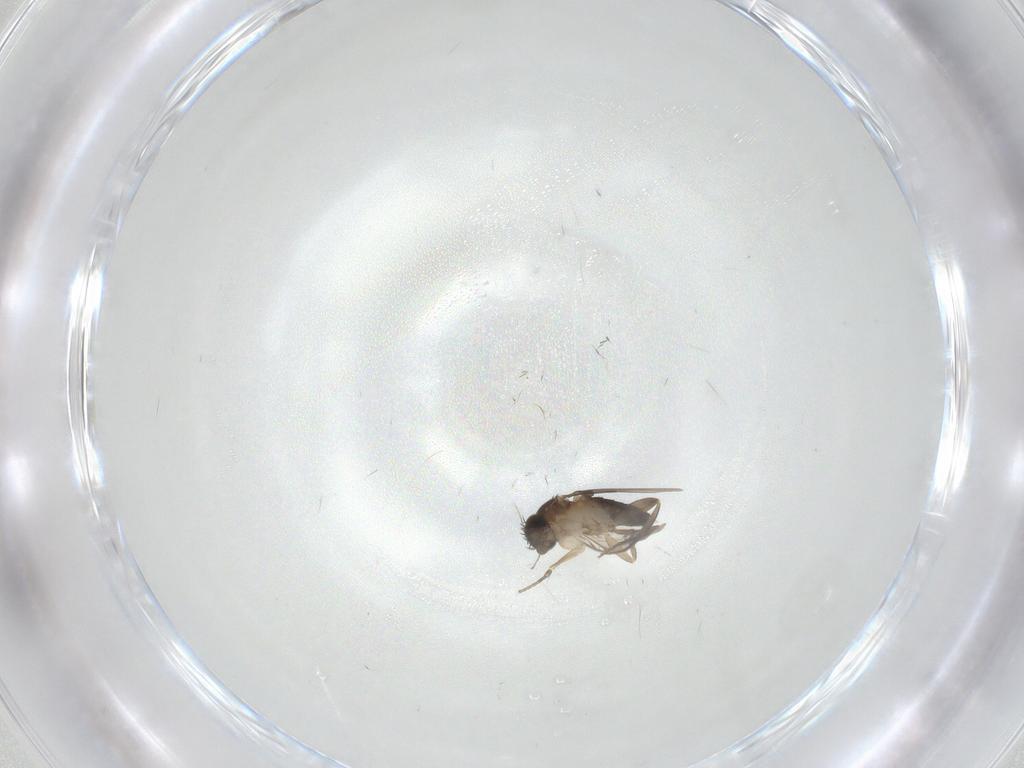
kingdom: Animalia
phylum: Arthropoda
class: Insecta
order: Diptera
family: Phoridae
